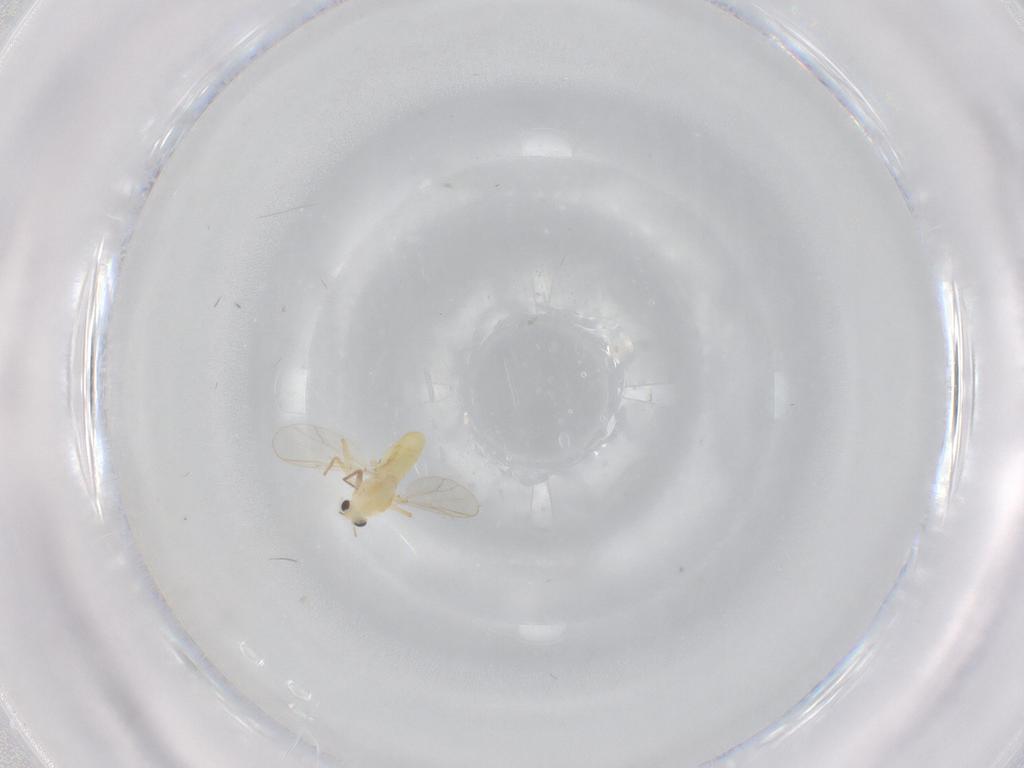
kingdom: Animalia
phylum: Arthropoda
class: Insecta
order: Diptera
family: Chironomidae
